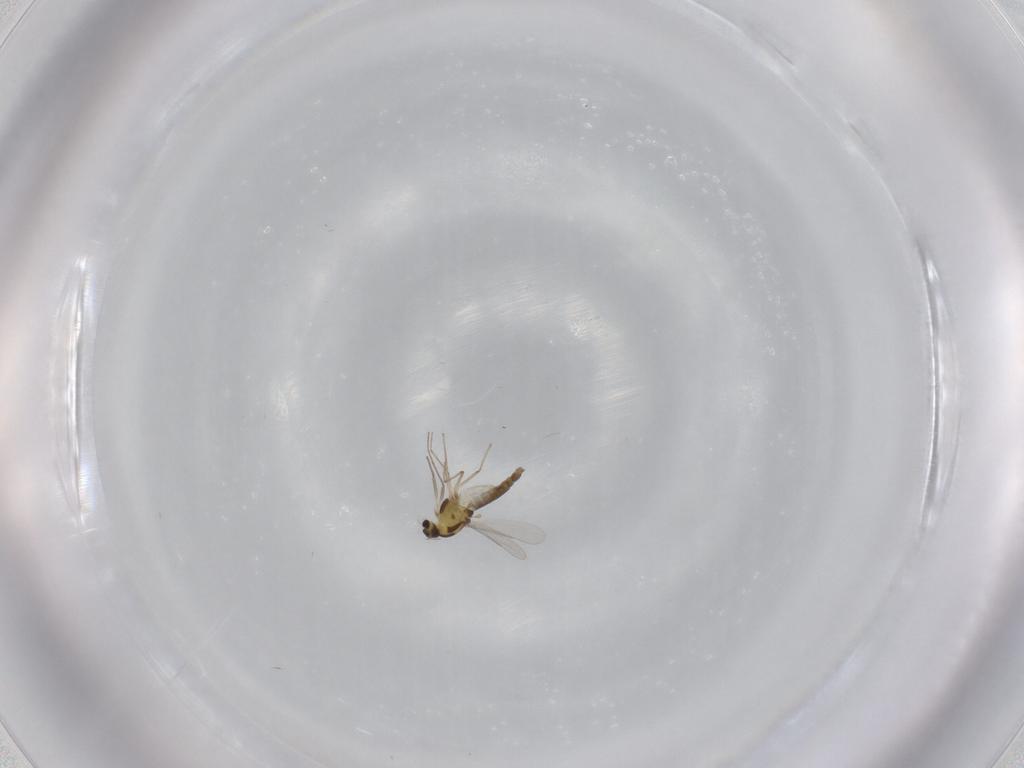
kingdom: Animalia
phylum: Arthropoda
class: Insecta
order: Diptera
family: Chironomidae
